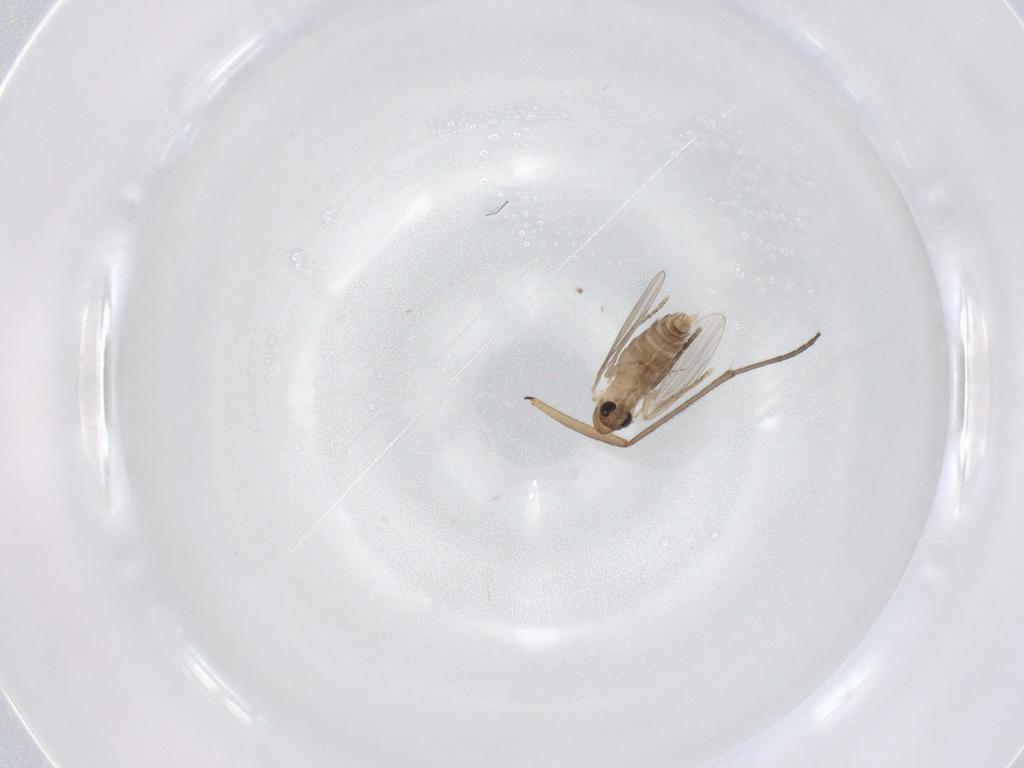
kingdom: Animalia
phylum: Arthropoda
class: Insecta
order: Diptera
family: Sciaridae
